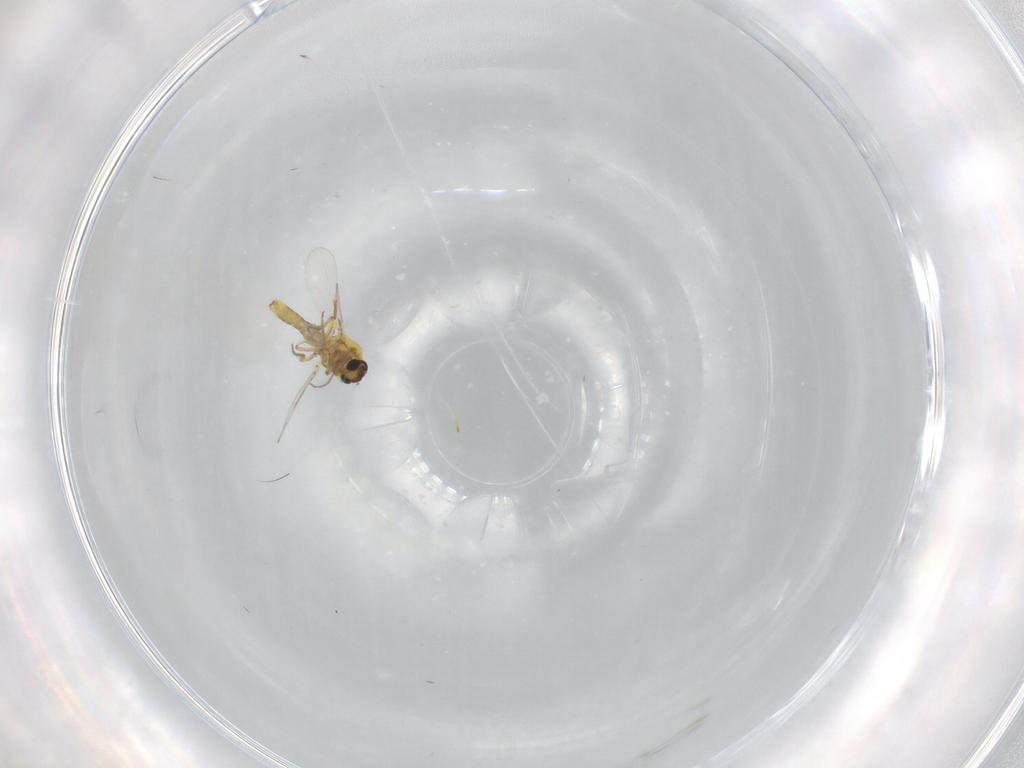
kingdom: Animalia
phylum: Arthropoda
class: Insecta
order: Diptera
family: Ceratopogonidae
